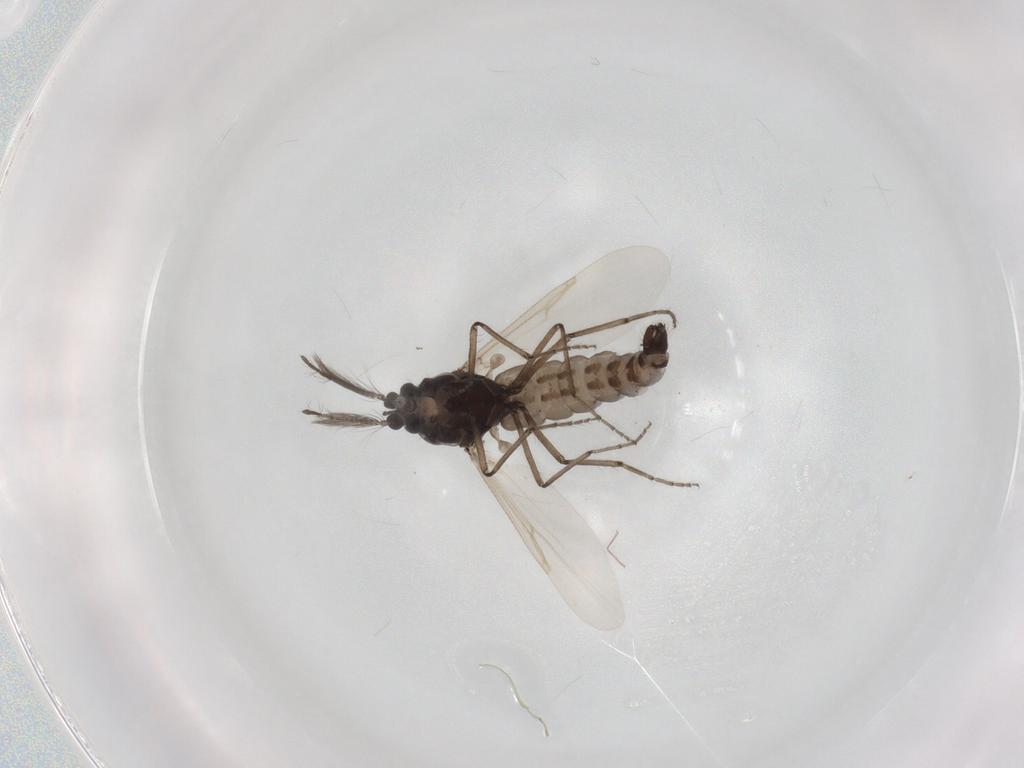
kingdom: Animalia
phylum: Arthropoda
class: Insecta
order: Diptera
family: Ceratopogonidae
